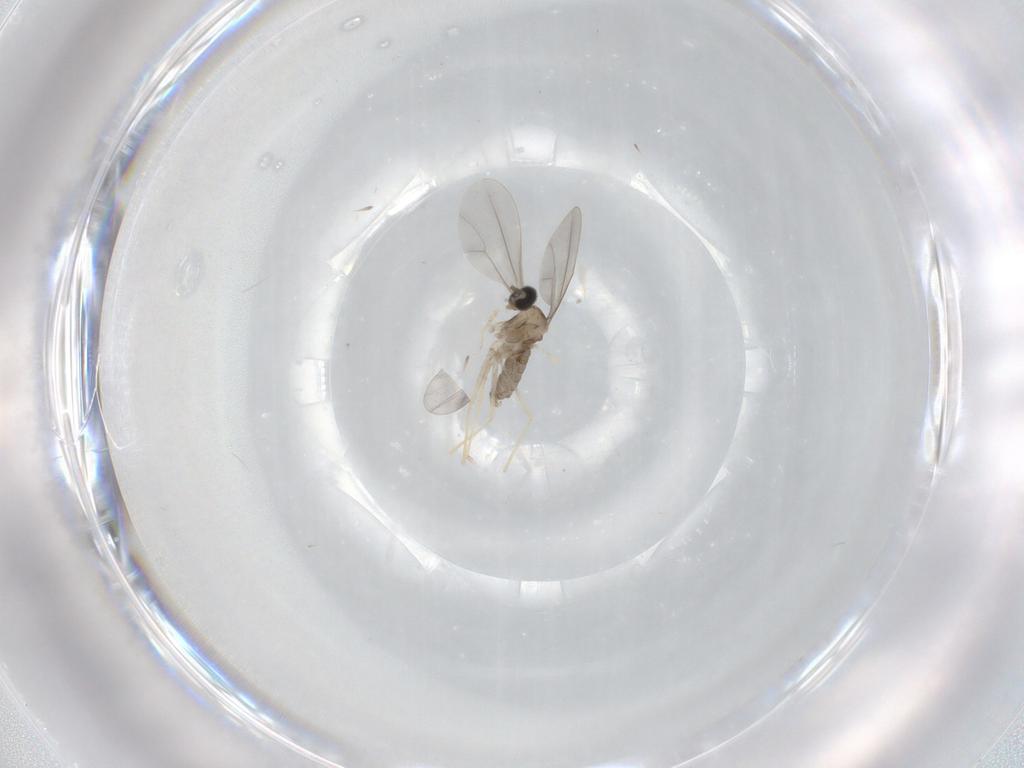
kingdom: Animalia
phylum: Arthropoda
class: Insecta
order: Diptera
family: Cecidomyiidae
